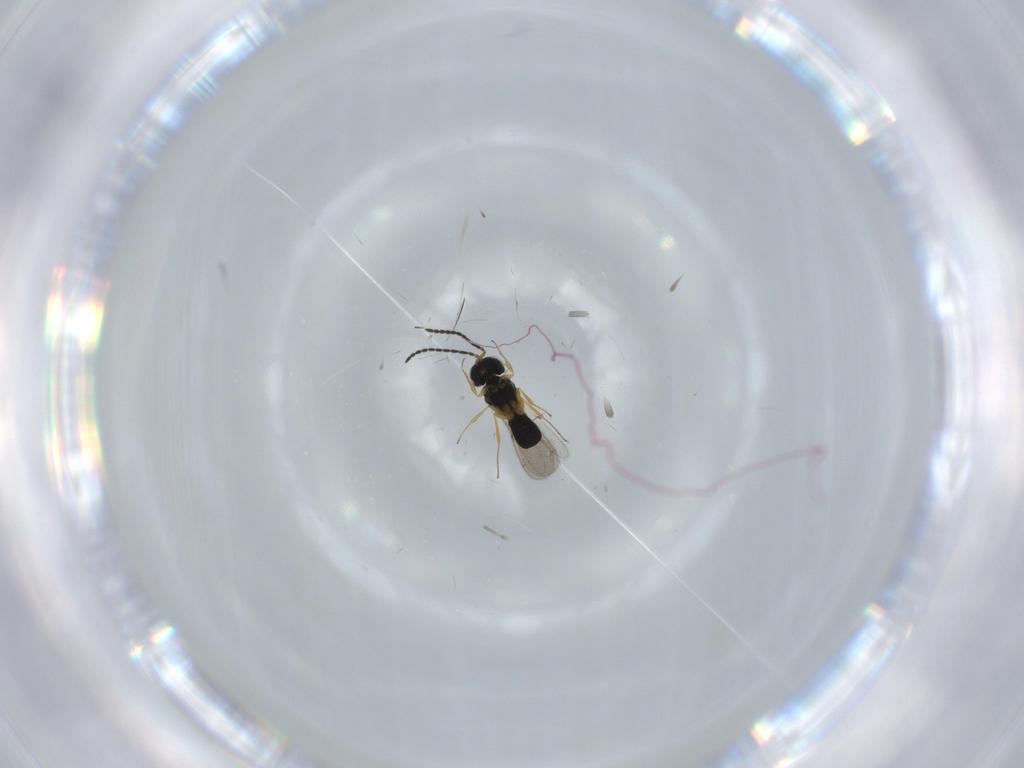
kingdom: Animalia
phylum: Arthropoda
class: Insecta
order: Hymenoptera
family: Scelionidae
